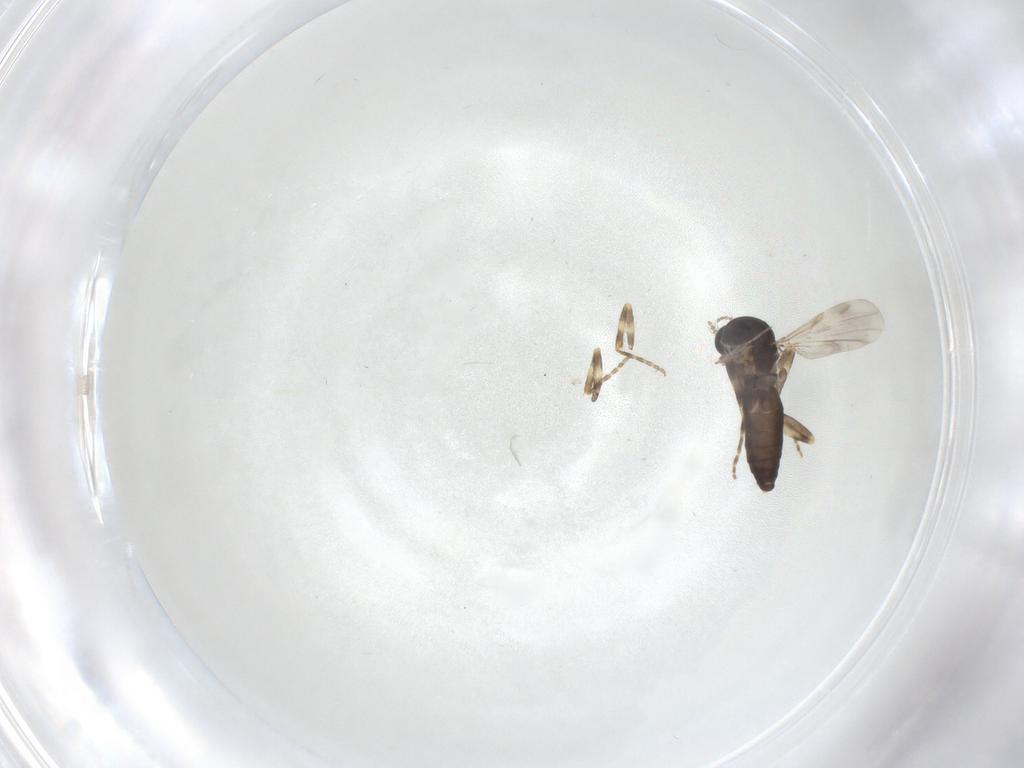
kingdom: Animalia
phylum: Arthropoda
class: Insecta
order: Diptera
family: Ceratopogonidae
